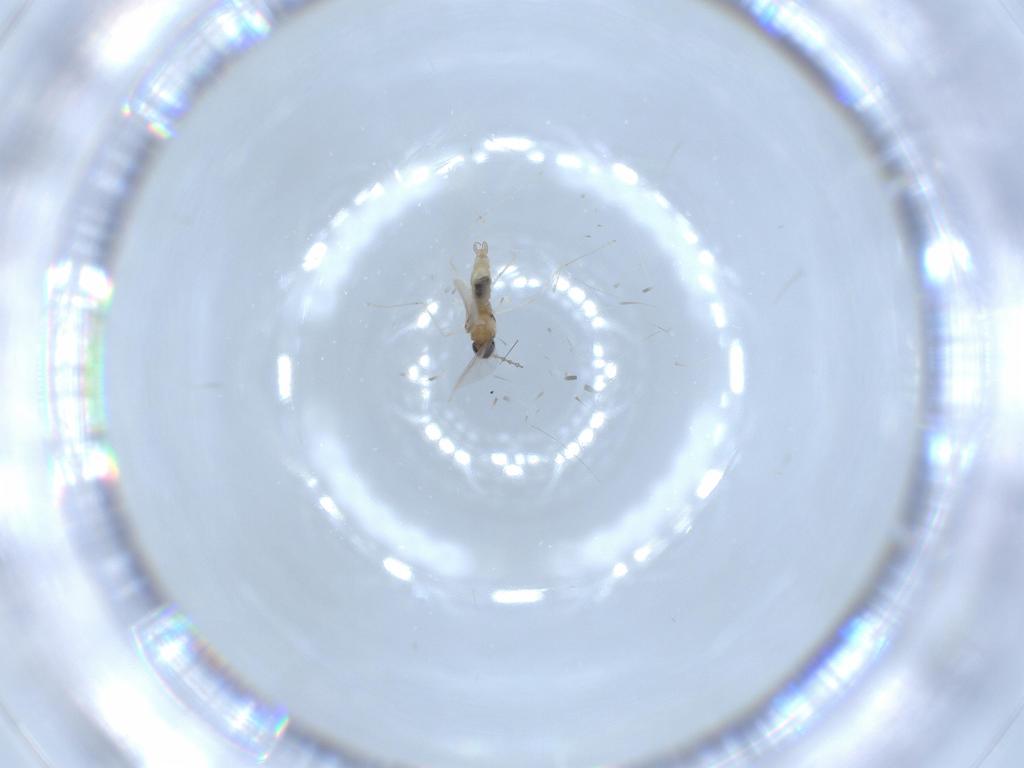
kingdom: Animalia
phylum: Arthropoda
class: Insecta
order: Diptera
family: Cecidomyiidae
